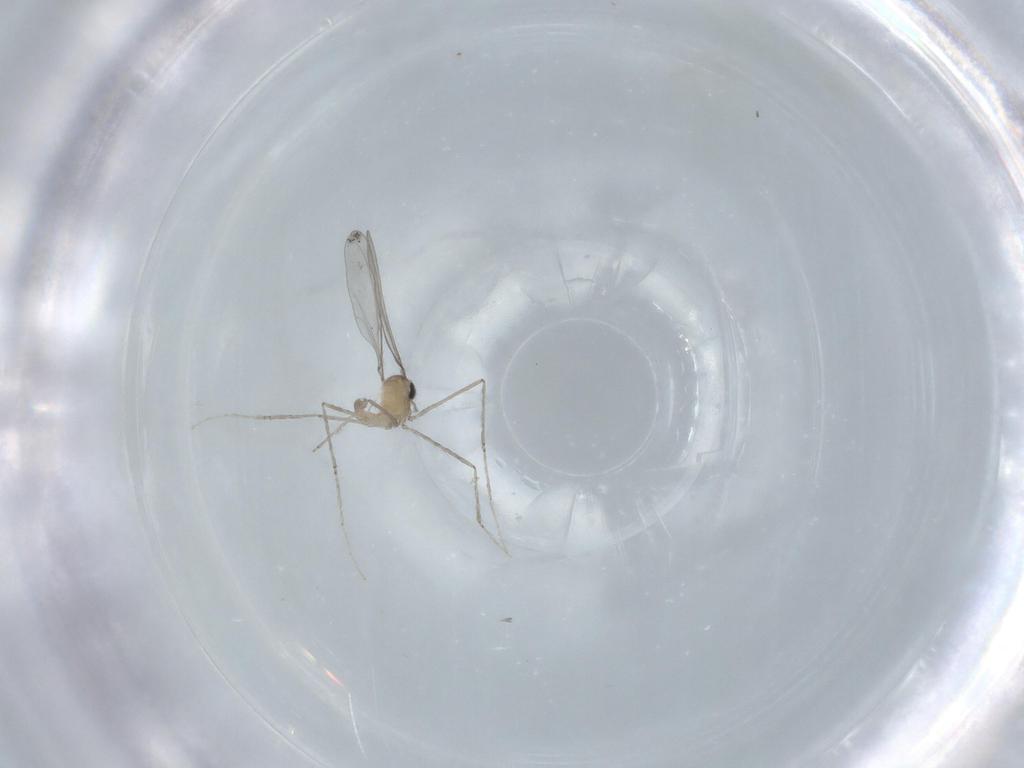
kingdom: Animalia
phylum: Arthropoda
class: Insecta
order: Diptera
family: Cecidomyiidae
